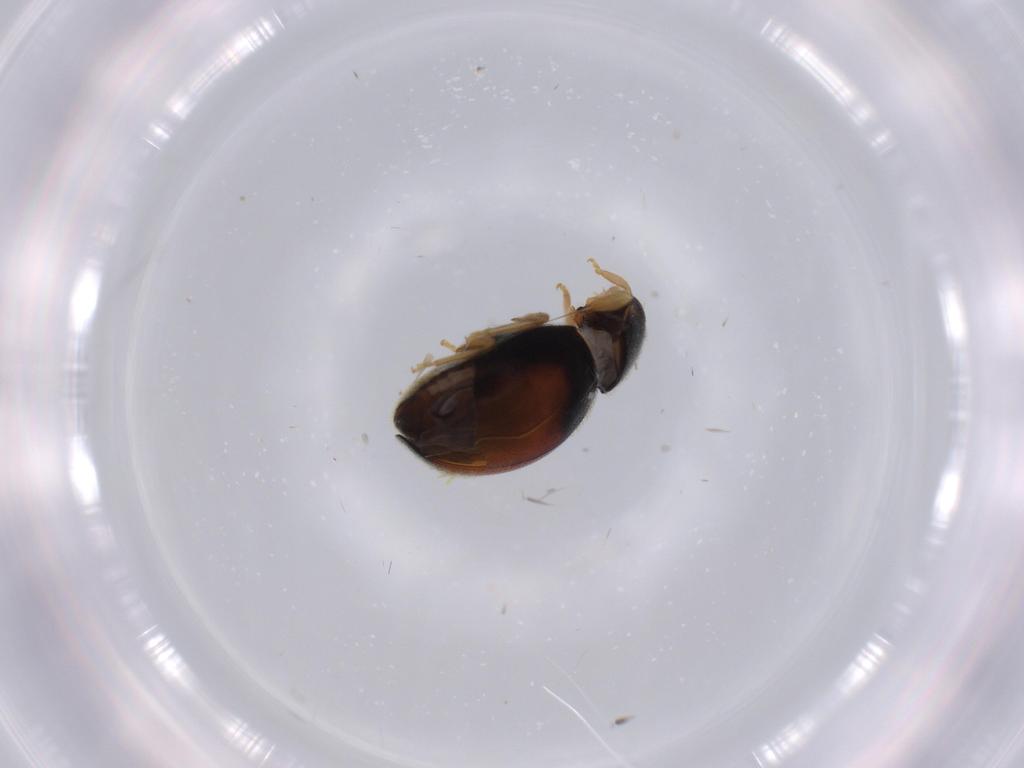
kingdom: Animalia
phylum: Arthropoda
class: Insecta
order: Coleoptera
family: Coccinellidae
